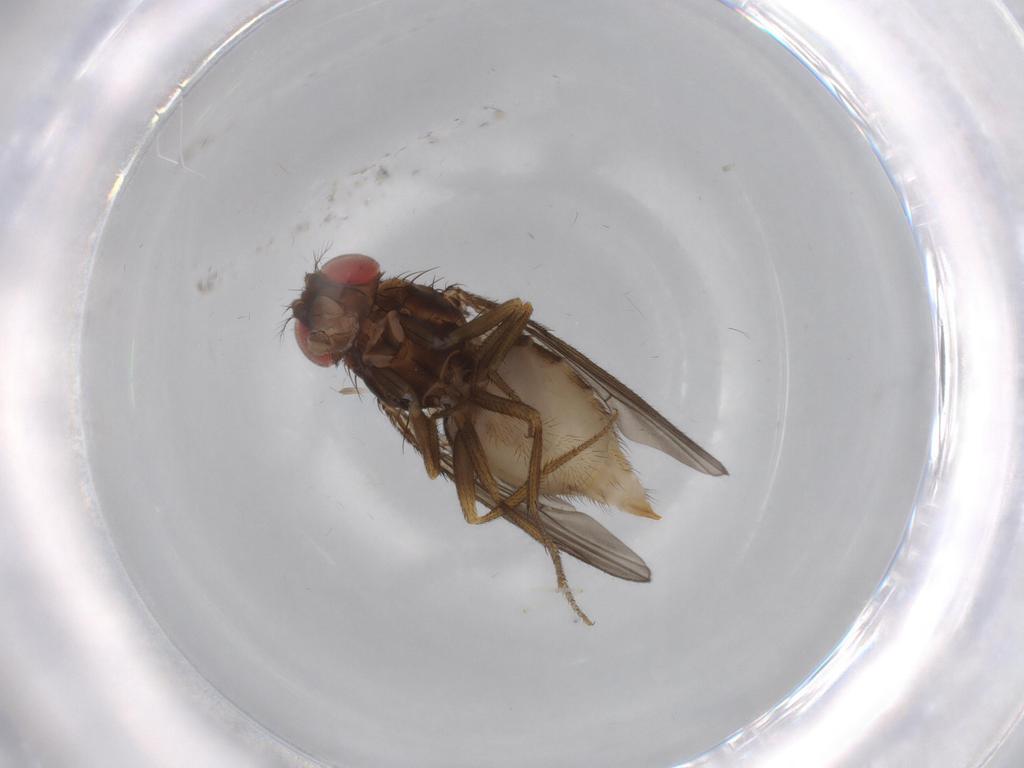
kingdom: Animalia
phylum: Arthropoda
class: Insecta
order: Diptera
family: Cecidomyiidae
